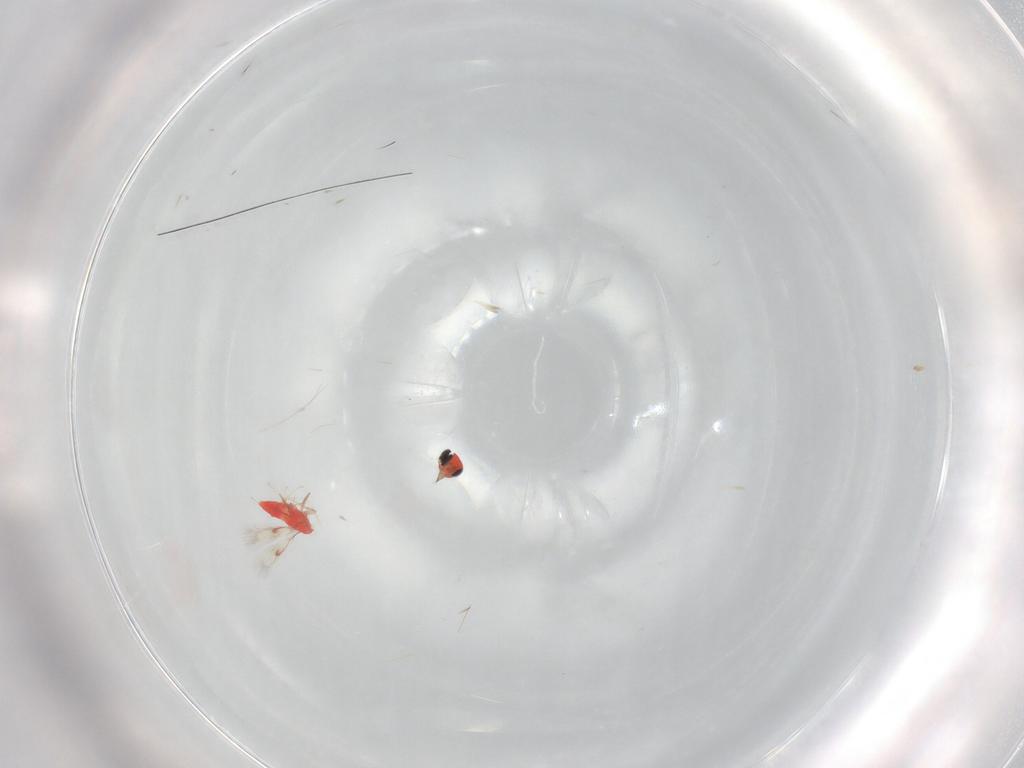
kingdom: Animalia
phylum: Arthropoda
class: Insecta
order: Hymenoptera
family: Trichogrammatidae
